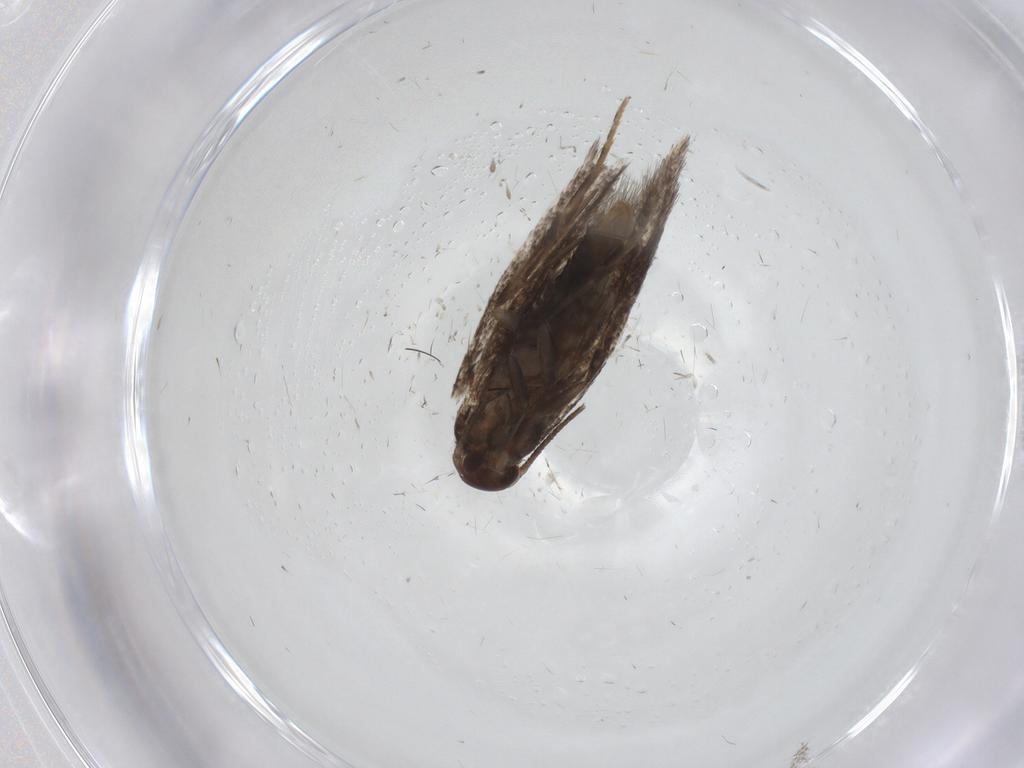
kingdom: Animalia
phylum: Arthropoda
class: Insecta
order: Lepidoptera
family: Elachistidae
